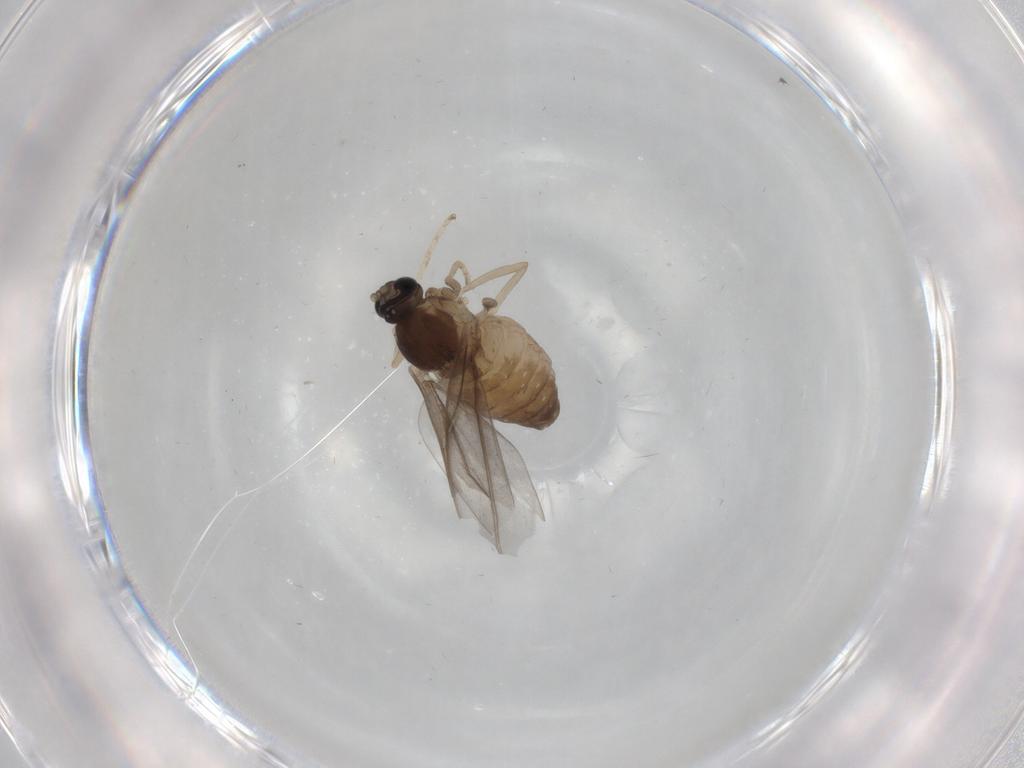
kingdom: Animalia
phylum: Arthropoda
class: Insecta
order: Diptera
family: Cecidomyiidae
